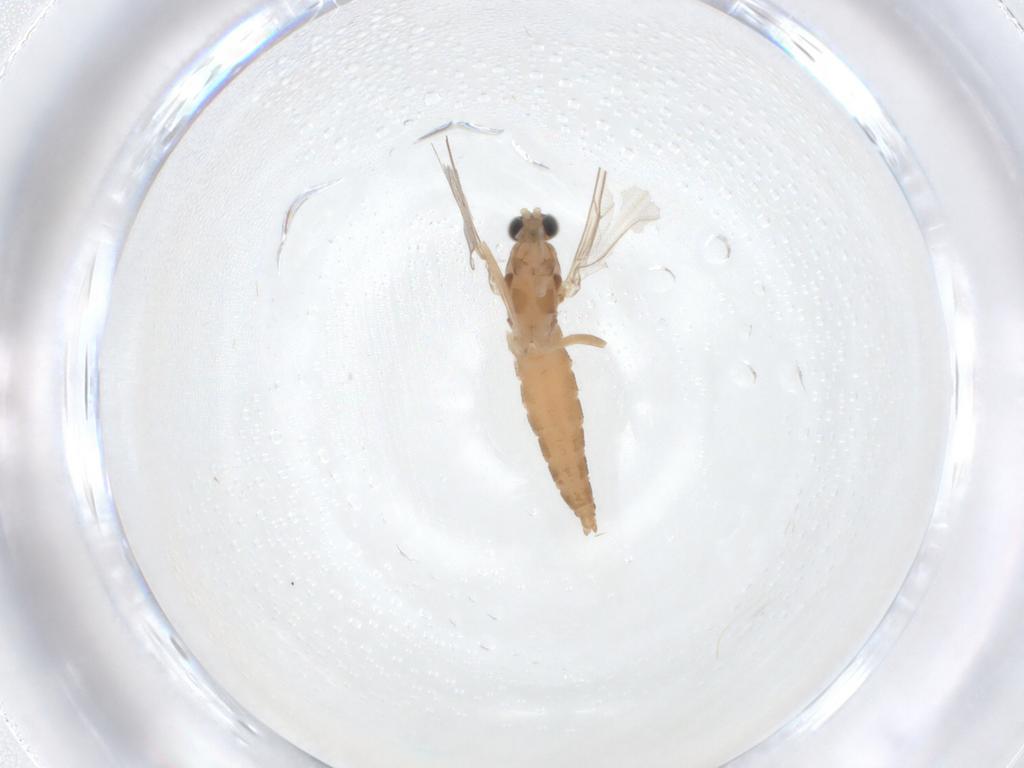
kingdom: Animalia
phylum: Arthropoda
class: Insecta
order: Diptera
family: Cecidomyiidae
